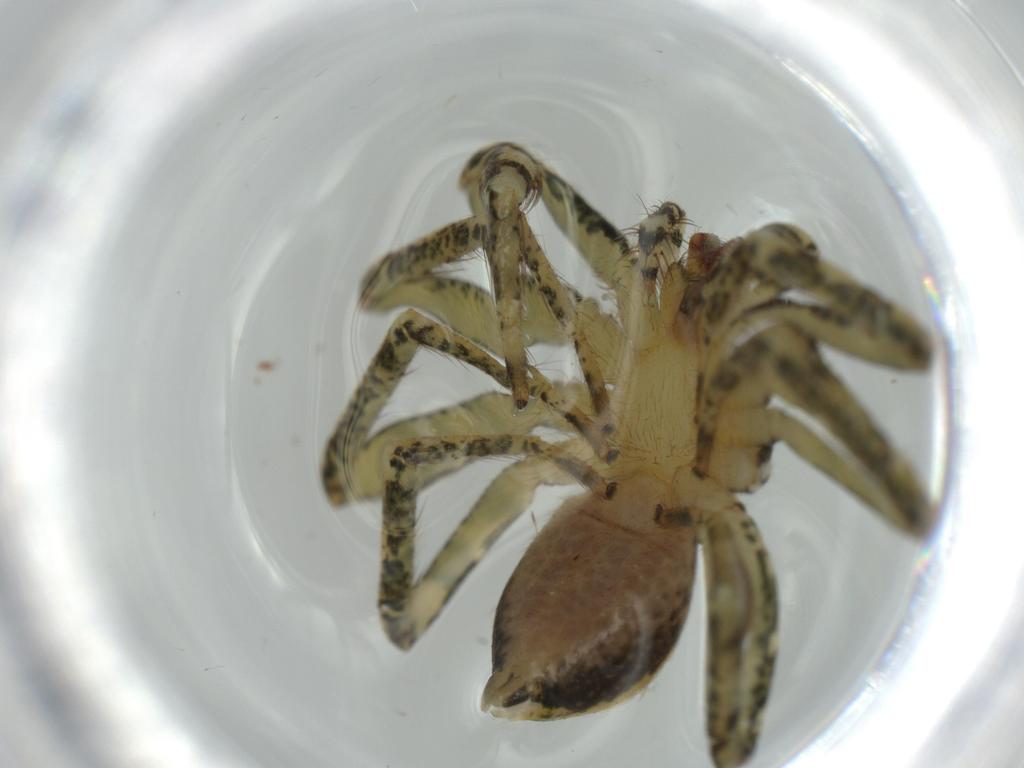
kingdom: Animalia
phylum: Arthropoda
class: Arachnida
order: Araneae
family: Selenopidae
